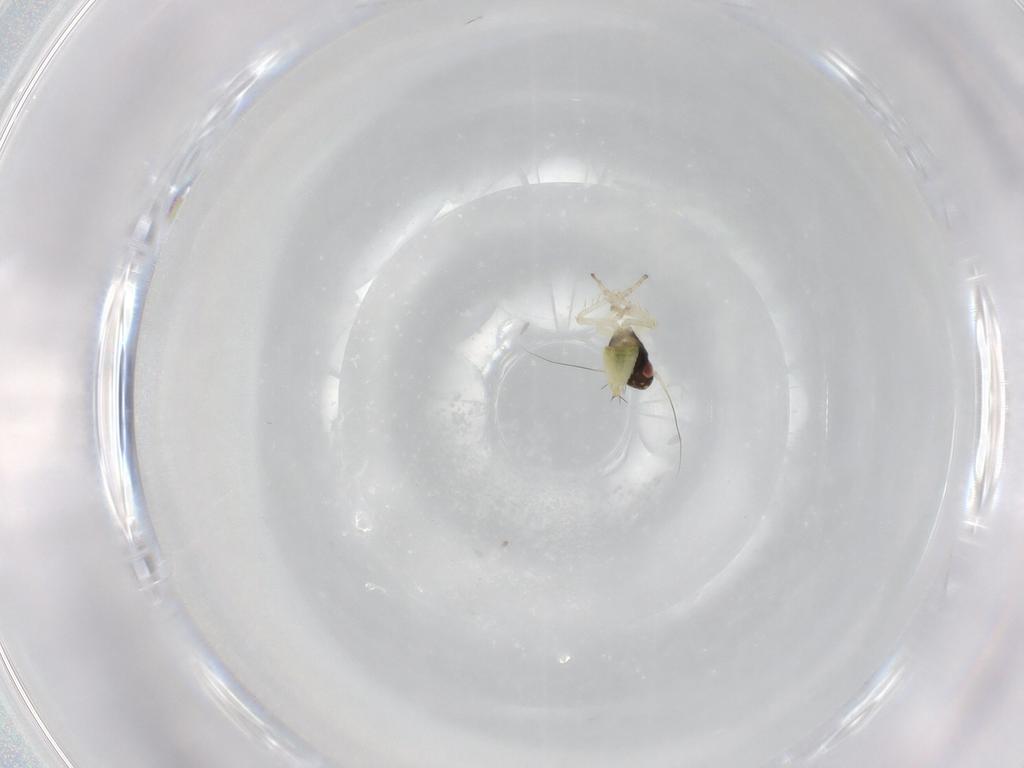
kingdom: Animalia
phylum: Arthropoda
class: Insecta
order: Hemiptera
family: Cicadellidae
